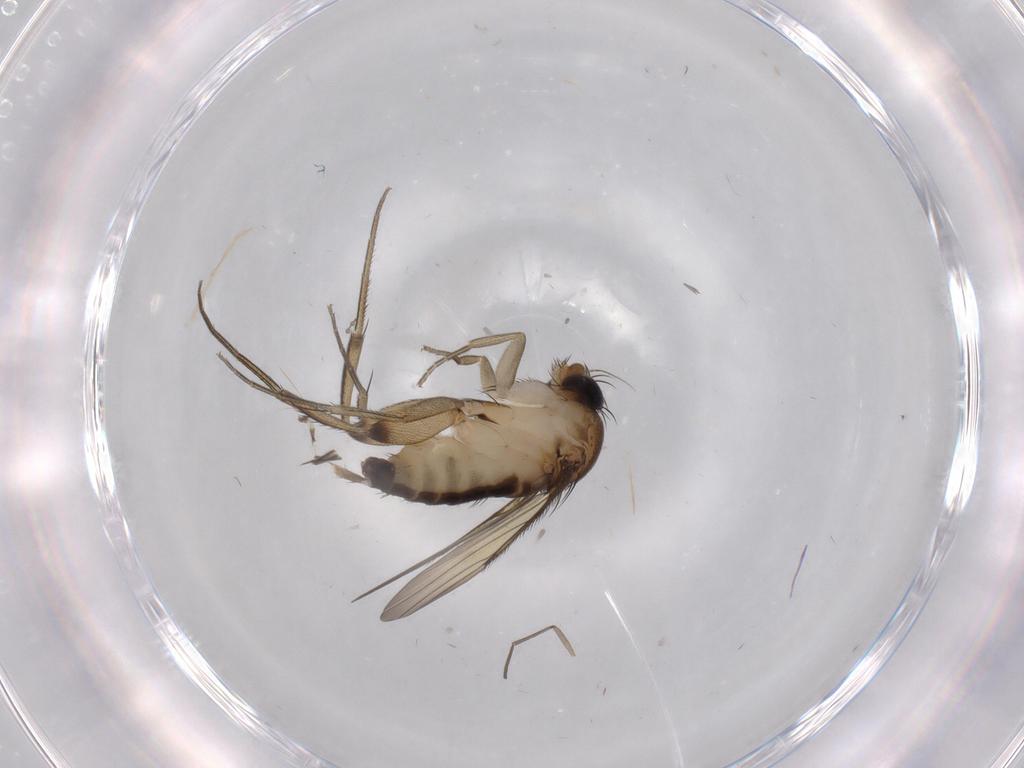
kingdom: Animalia
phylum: Arthropoda
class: Insecta
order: Diptera
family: Phoridae
